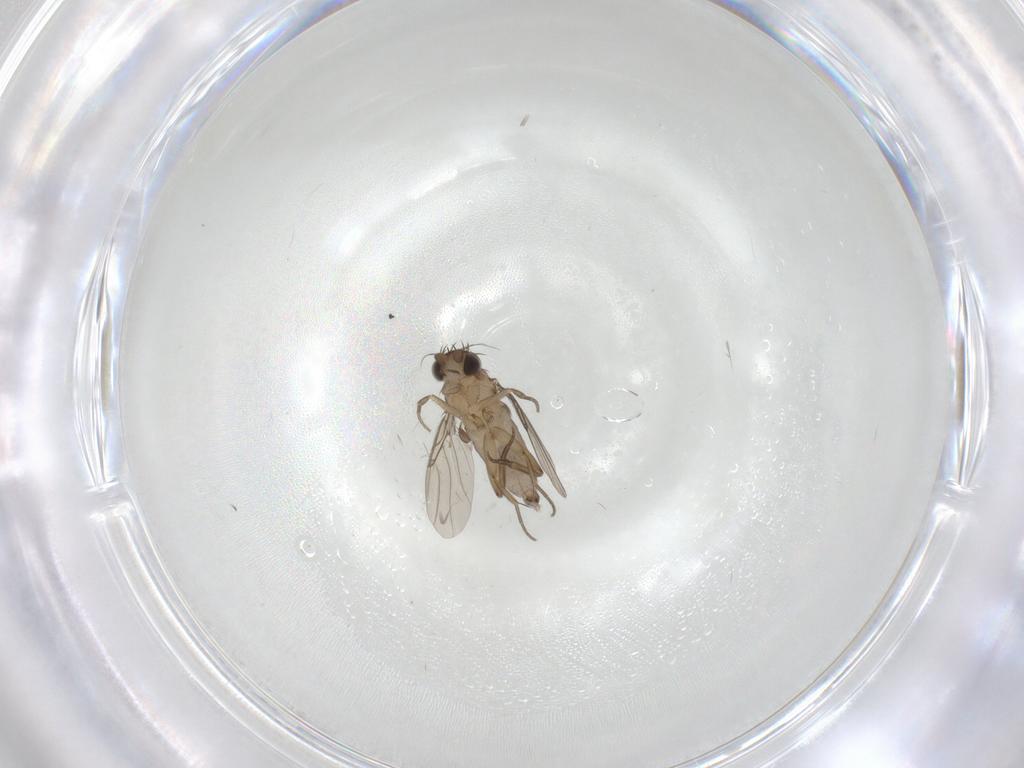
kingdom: Animalia
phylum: Arthropoda
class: Insecta
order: Diptera
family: Phoridae
